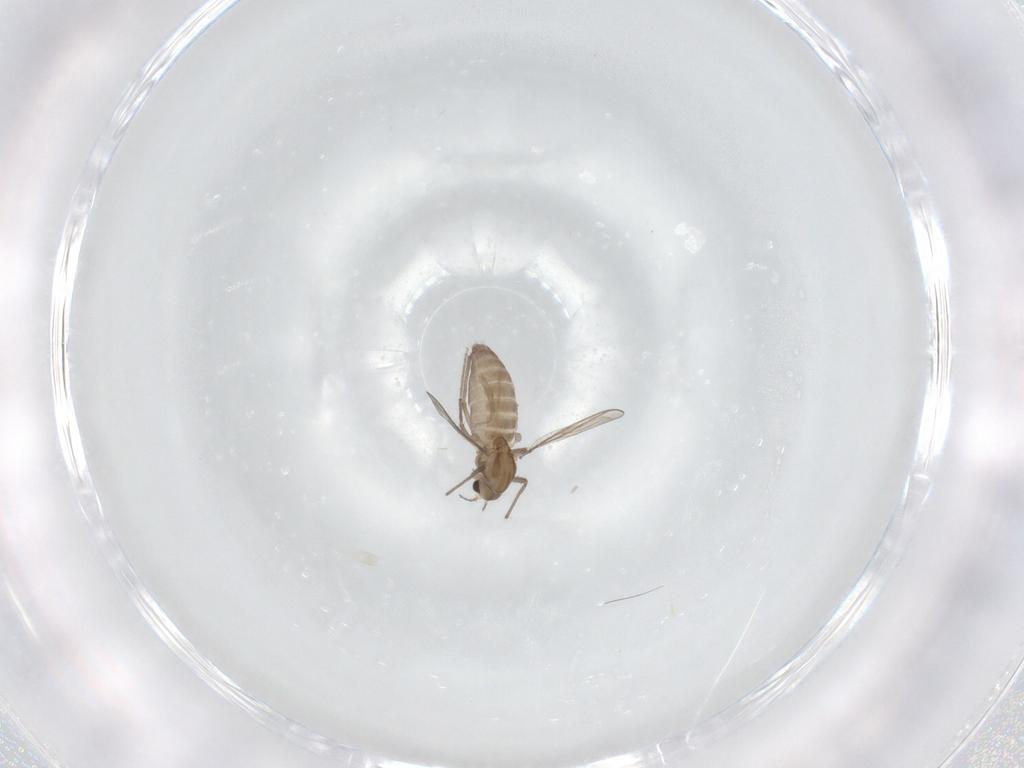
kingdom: Animalia
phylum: Arthropoda
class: Insecta
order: Diptera
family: Chironomidae
